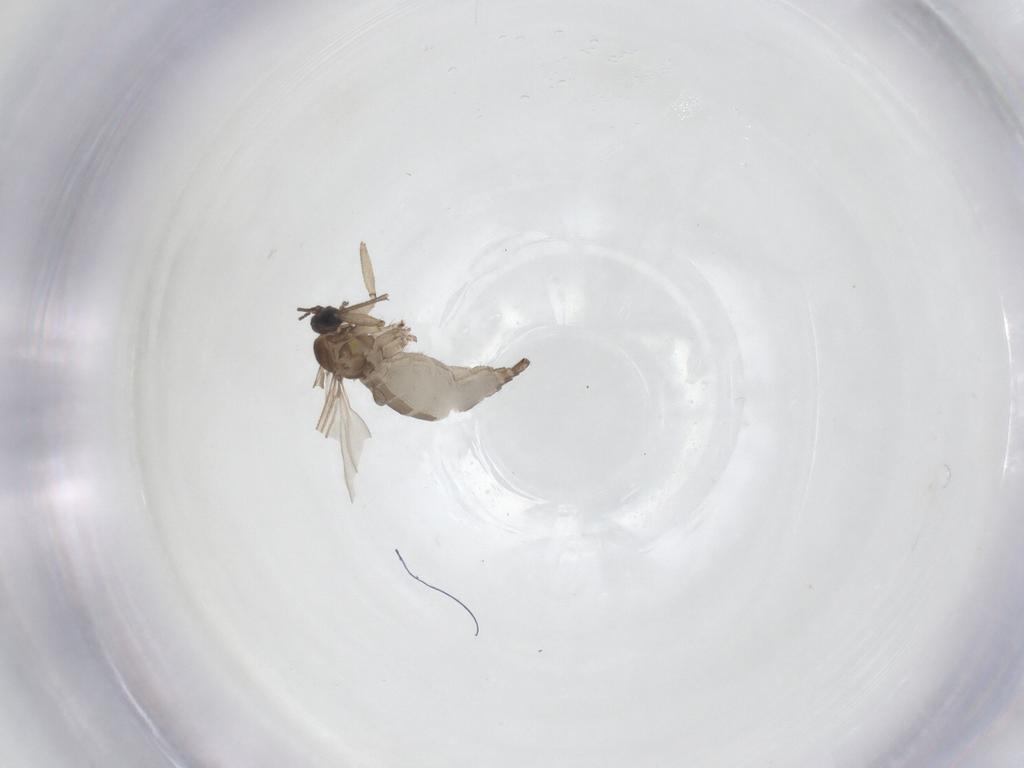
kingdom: Animalia
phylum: Arthropoda
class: Insecta
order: Diptera
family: Sciaridae
